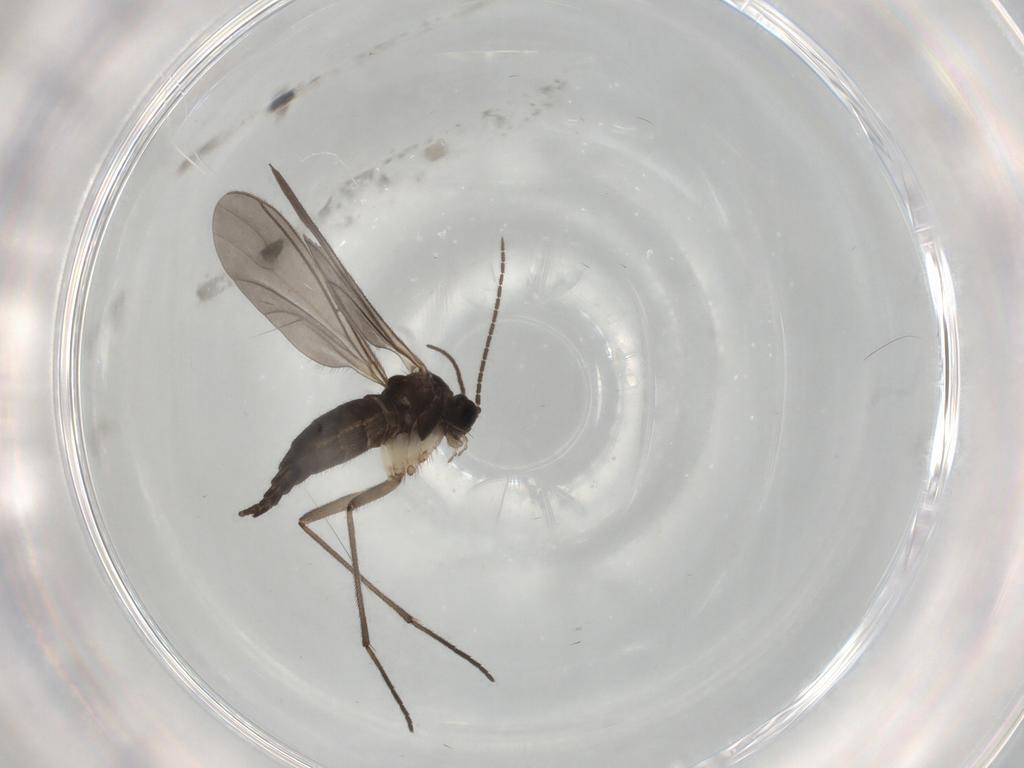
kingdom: Animalia
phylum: Arthropoda
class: Insecta
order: Diptera
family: Sciaridae
